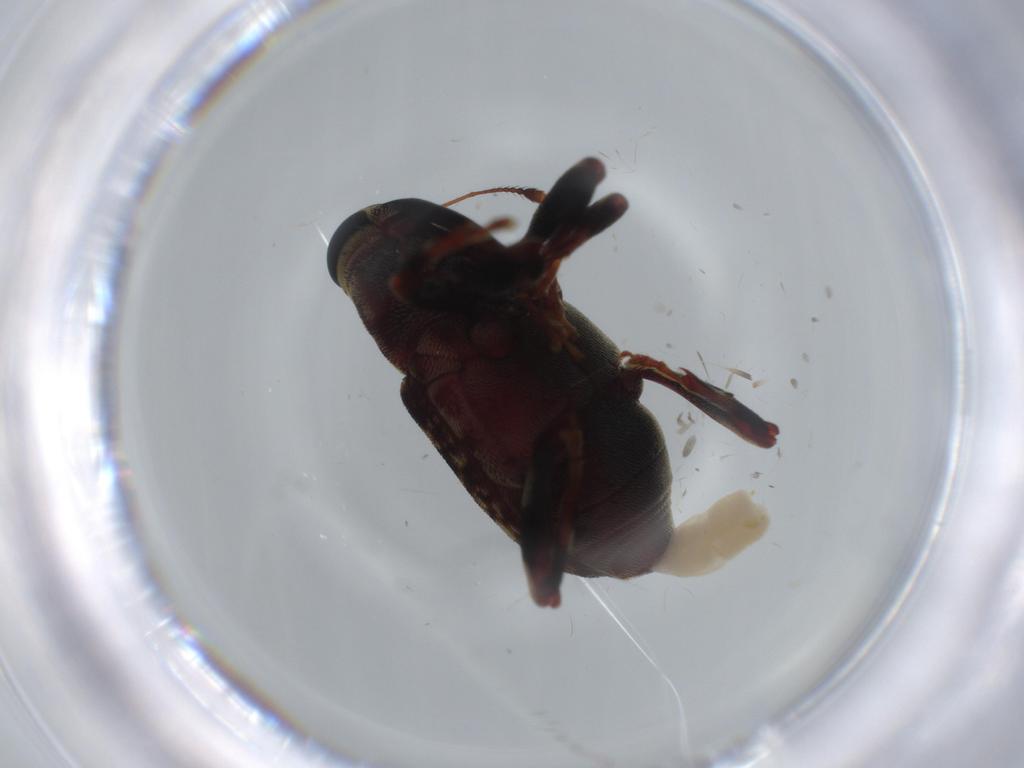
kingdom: Animalia
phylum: Arthropoda
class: Insecta
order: Coleoptera
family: Curculionidae
